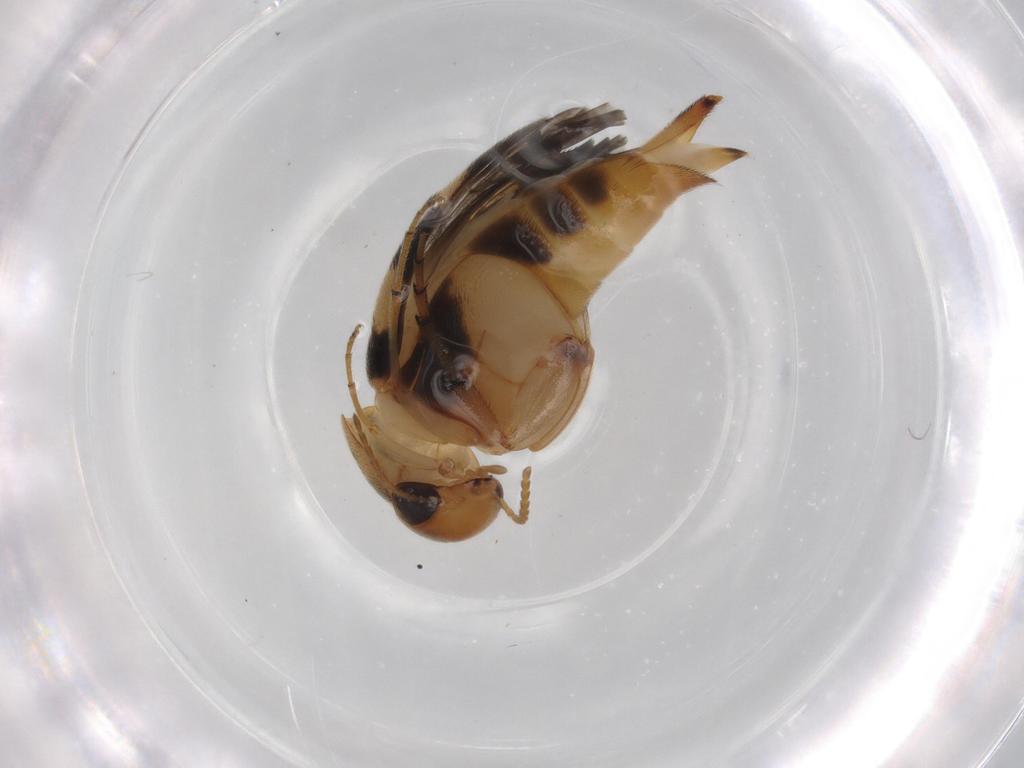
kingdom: Animalia
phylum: Arthropoda
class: Insecta
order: Coleoptera
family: Mordellidae
